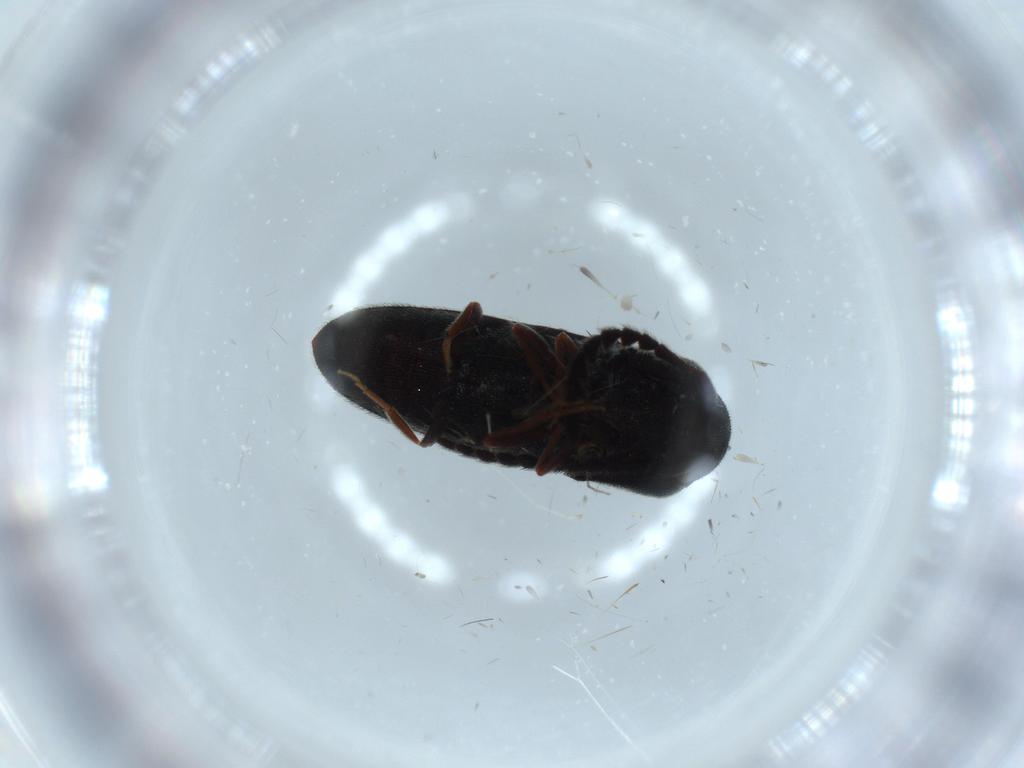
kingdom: Animalia
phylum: Arthropoda
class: Insecta
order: Coleoptera
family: Eucnemidae
